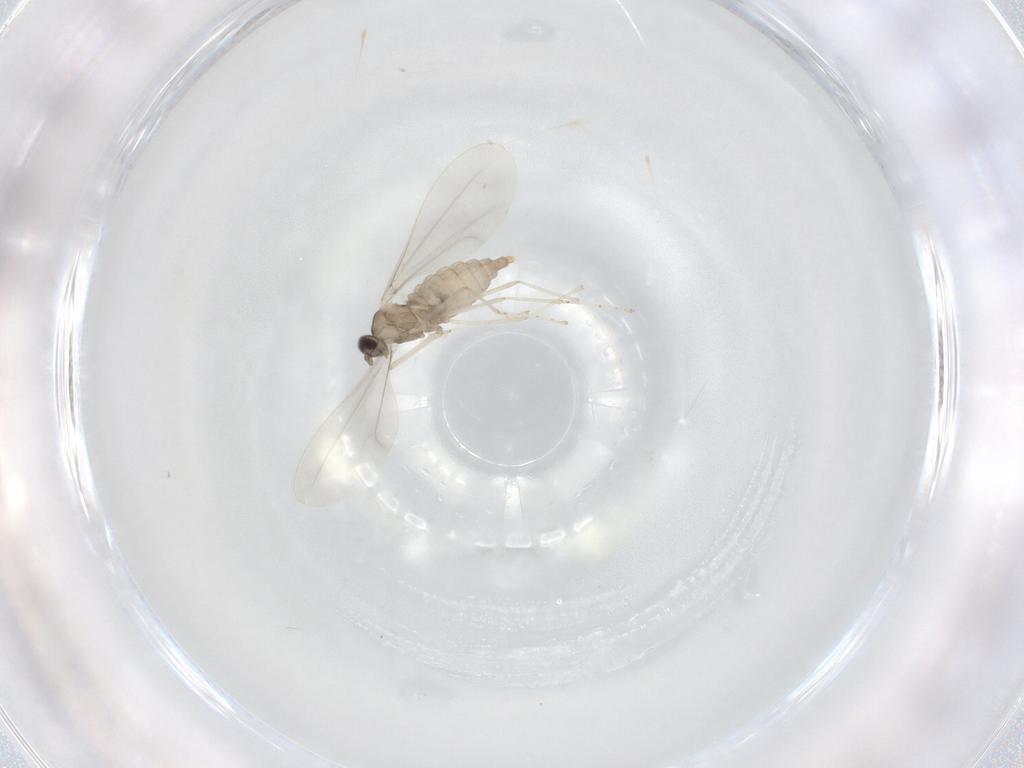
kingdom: Animalia
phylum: Arthropoda
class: Insecta
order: Diptera
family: Cecidomyiidae
